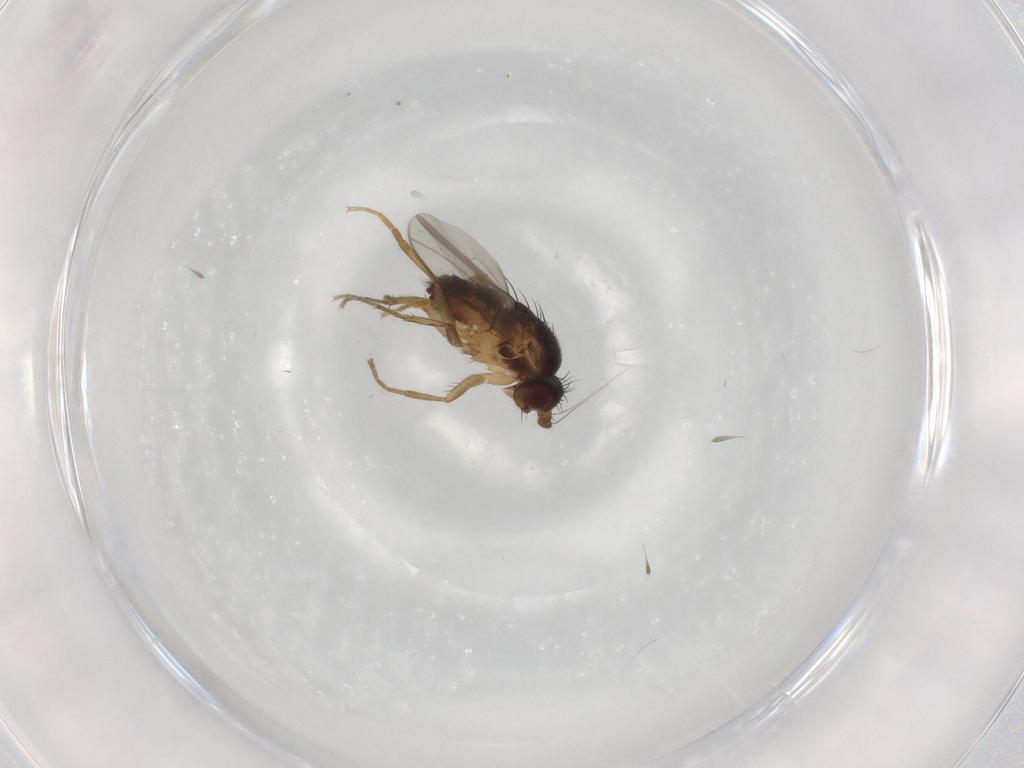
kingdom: Animalia
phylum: Arthropoda
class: Insecta
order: Diptera
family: Sphaeroceridae
